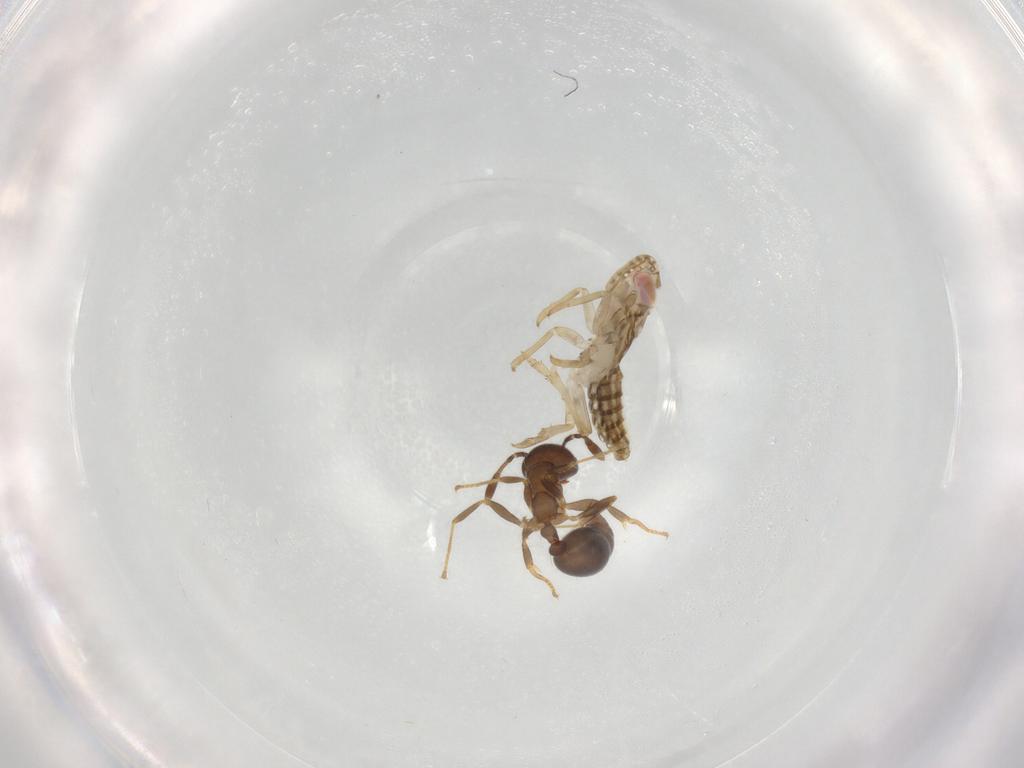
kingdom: Animalia
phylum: Arthropoda
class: Insecta
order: Hemiptera
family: Delphacidae
